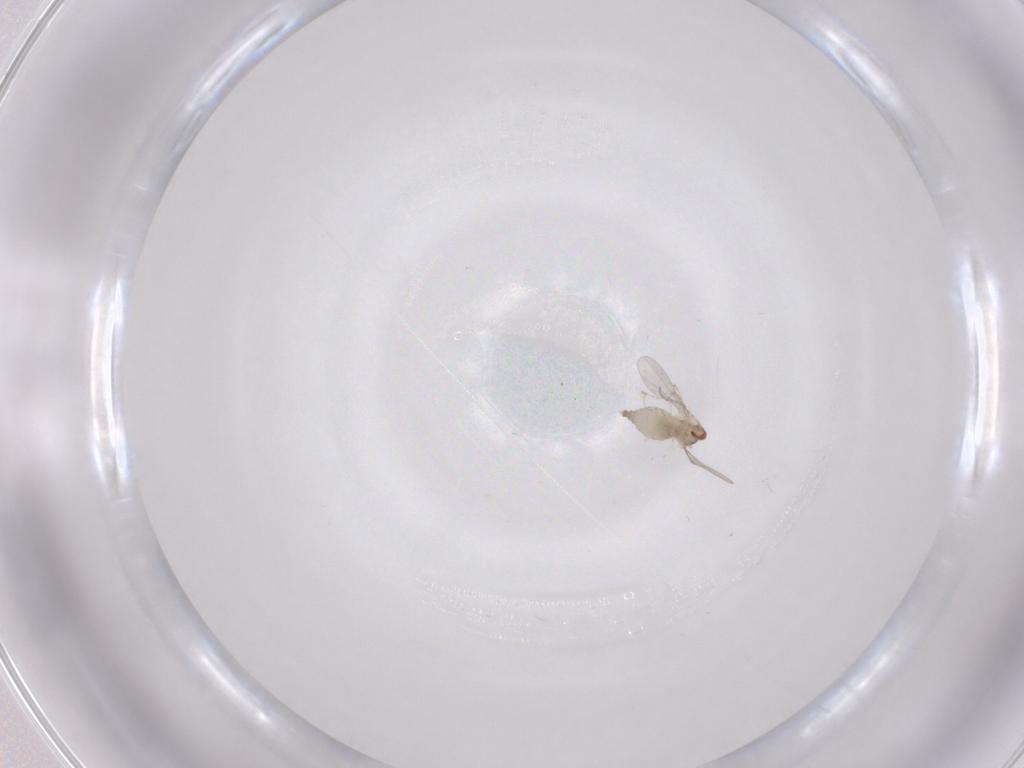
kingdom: Animalia
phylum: Arthropoda
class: Insecta
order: Diptera
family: Cecidomyiidae
